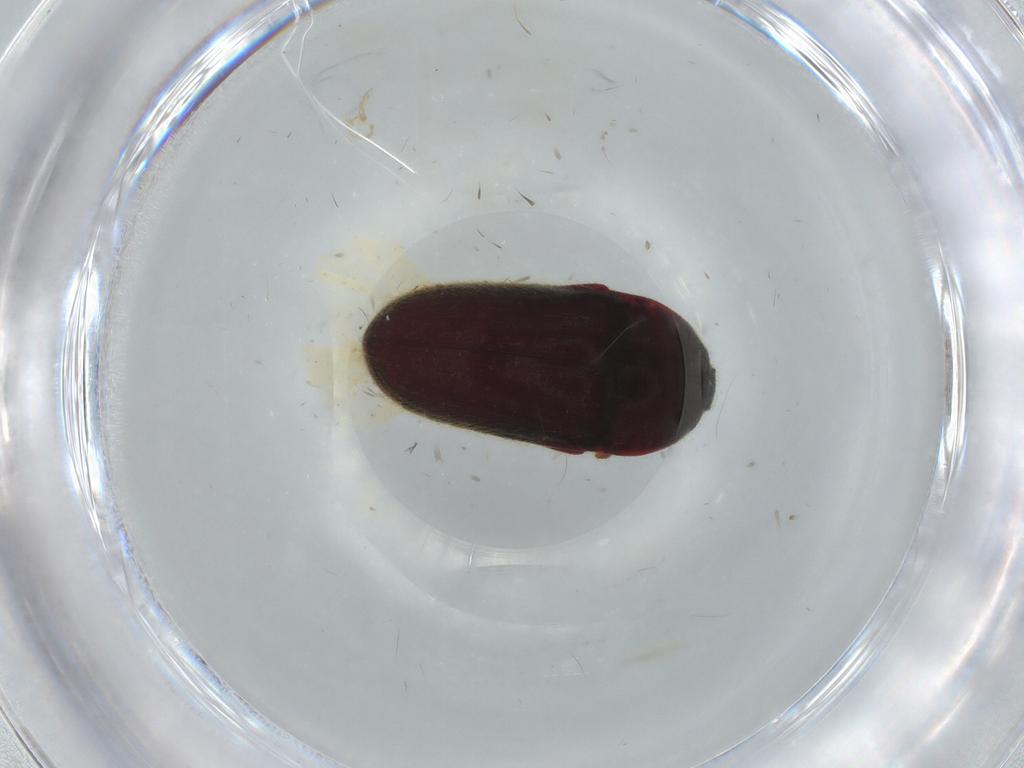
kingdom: Animalia
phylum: Arthropoda
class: Insecta
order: Coleoptera
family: Throscidae
